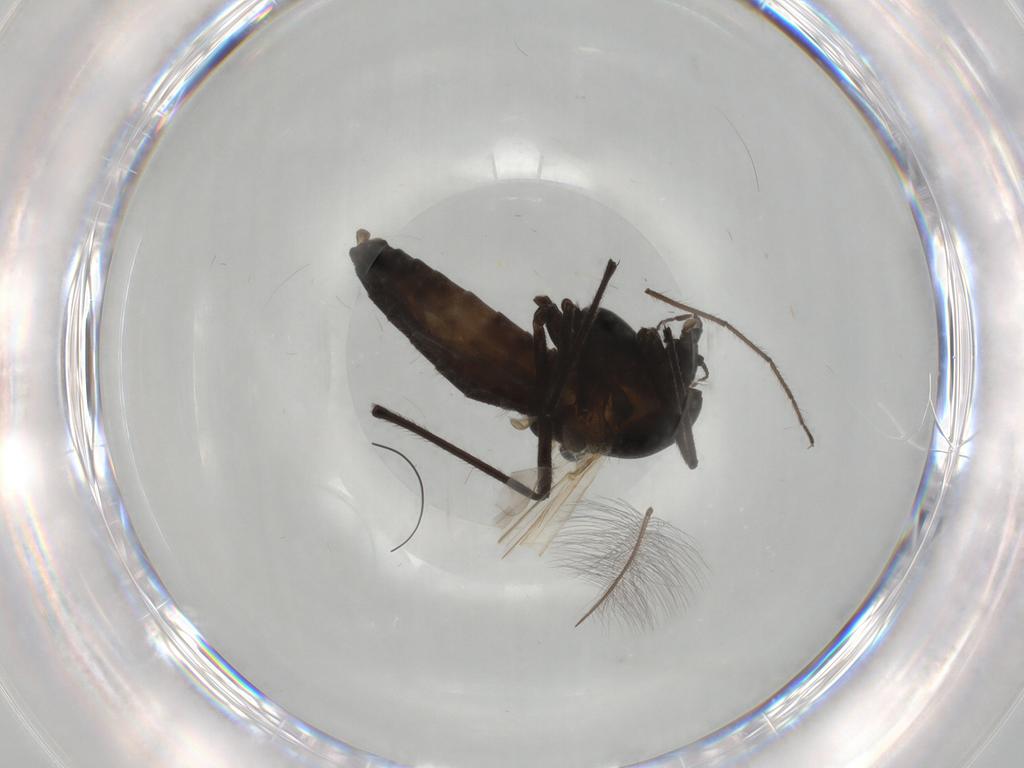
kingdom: Animalia
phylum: Arthropoda
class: Insecta
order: Diptera
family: Chironomidae
